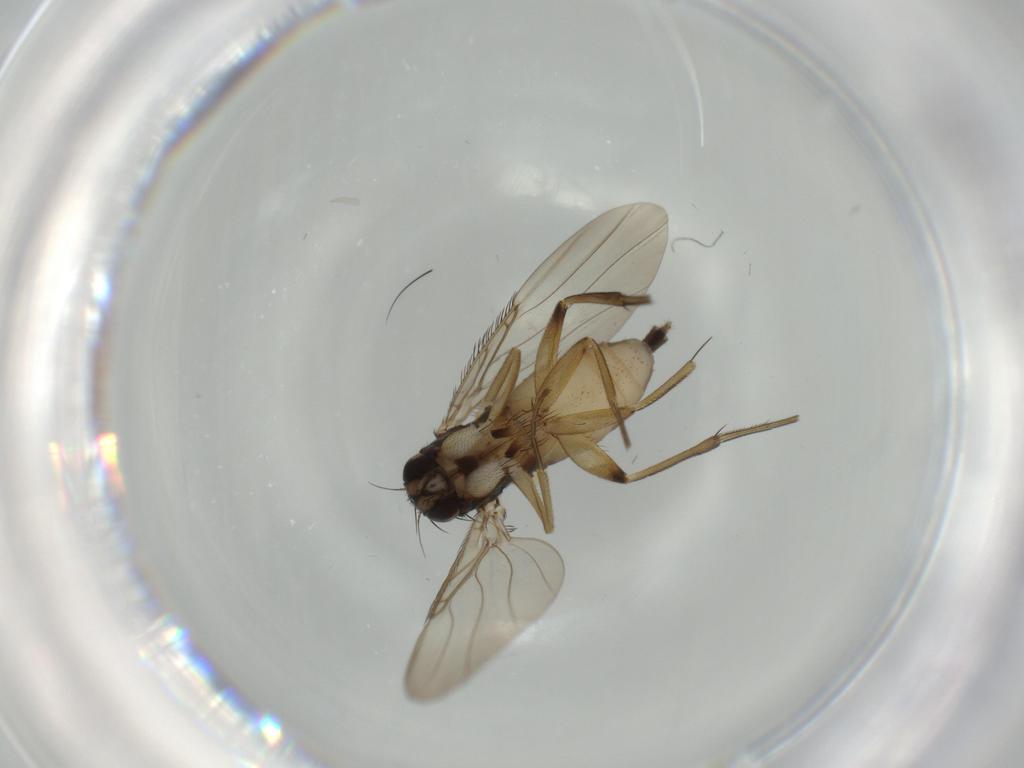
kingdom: Animalia
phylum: Arthropoda
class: Insecta
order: Diptera
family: Phoridae
